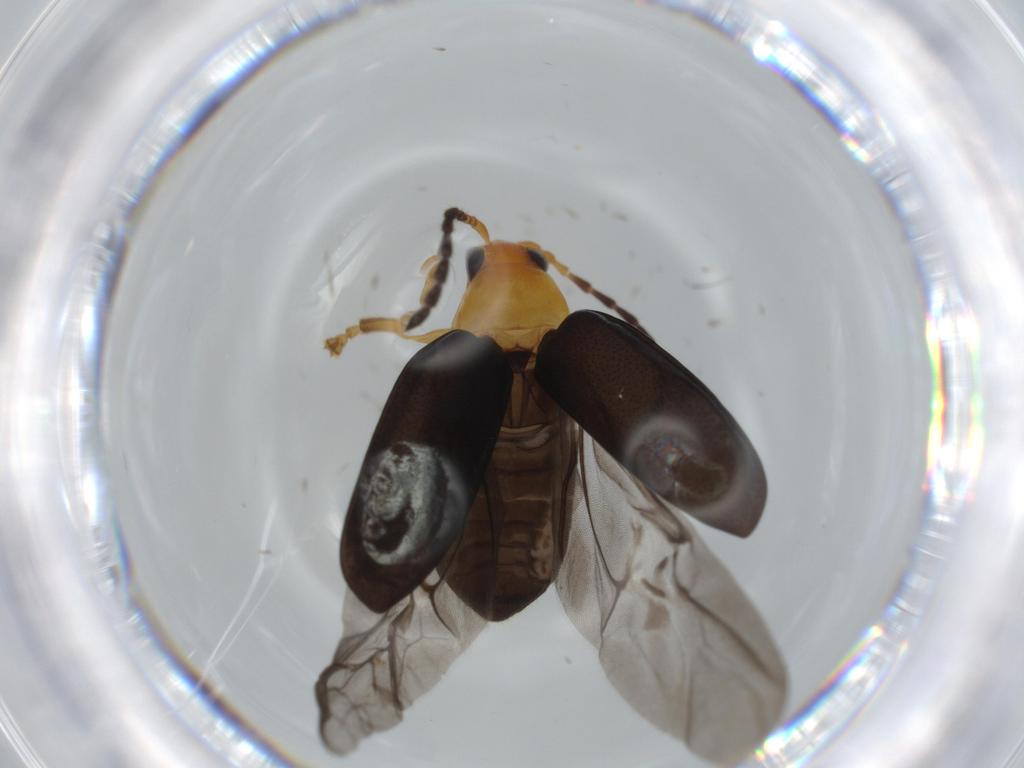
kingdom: Animalia
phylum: Arthropoda
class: Insecta
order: Coleoptera
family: Chrysomelidae
